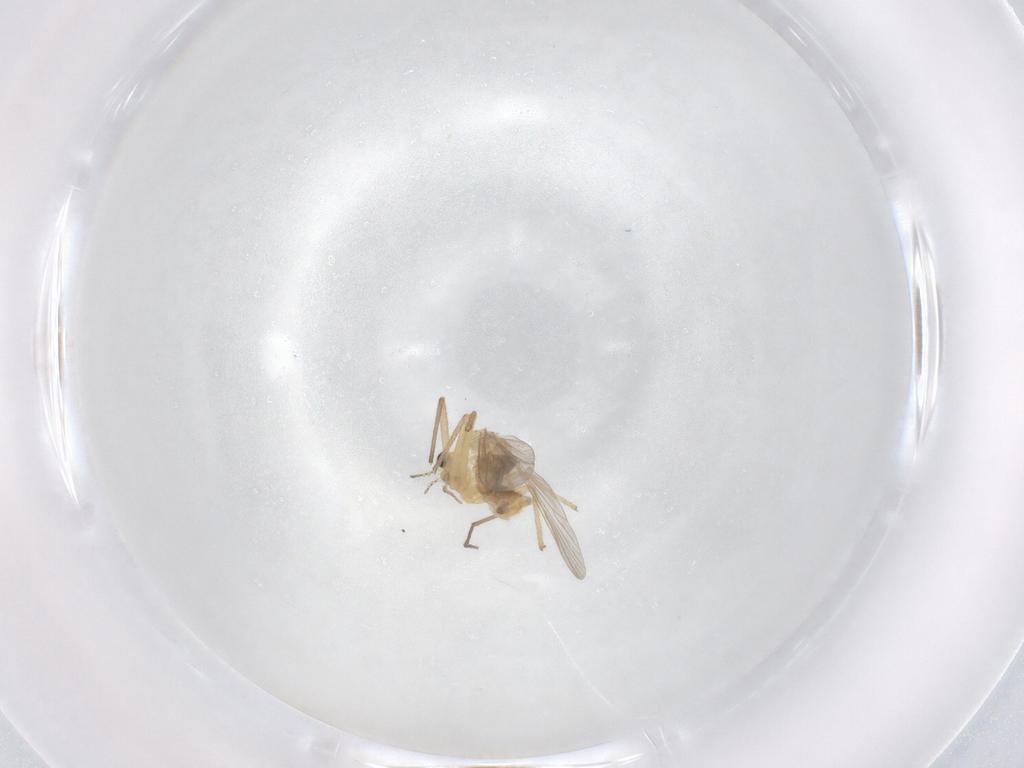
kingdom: Animalia
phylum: Arthropoda
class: Insecta
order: Diptera
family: Chironomidae
